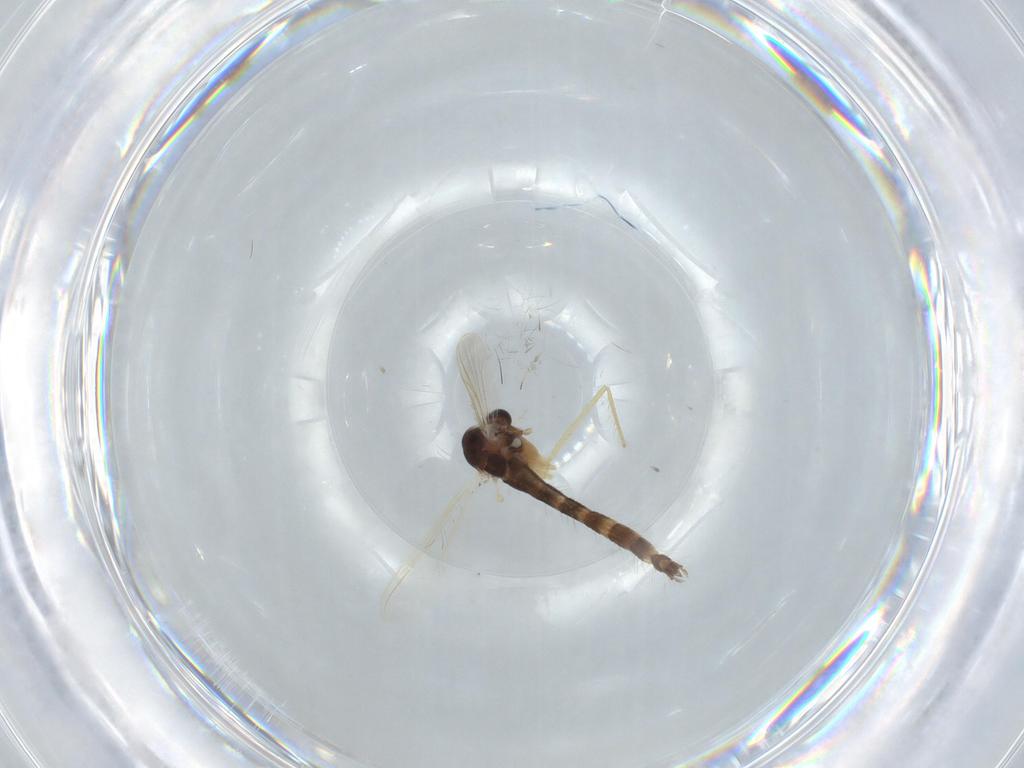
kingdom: Animalia
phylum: Arthropoda
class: Insecta
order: Diptera
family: Chironomidae
